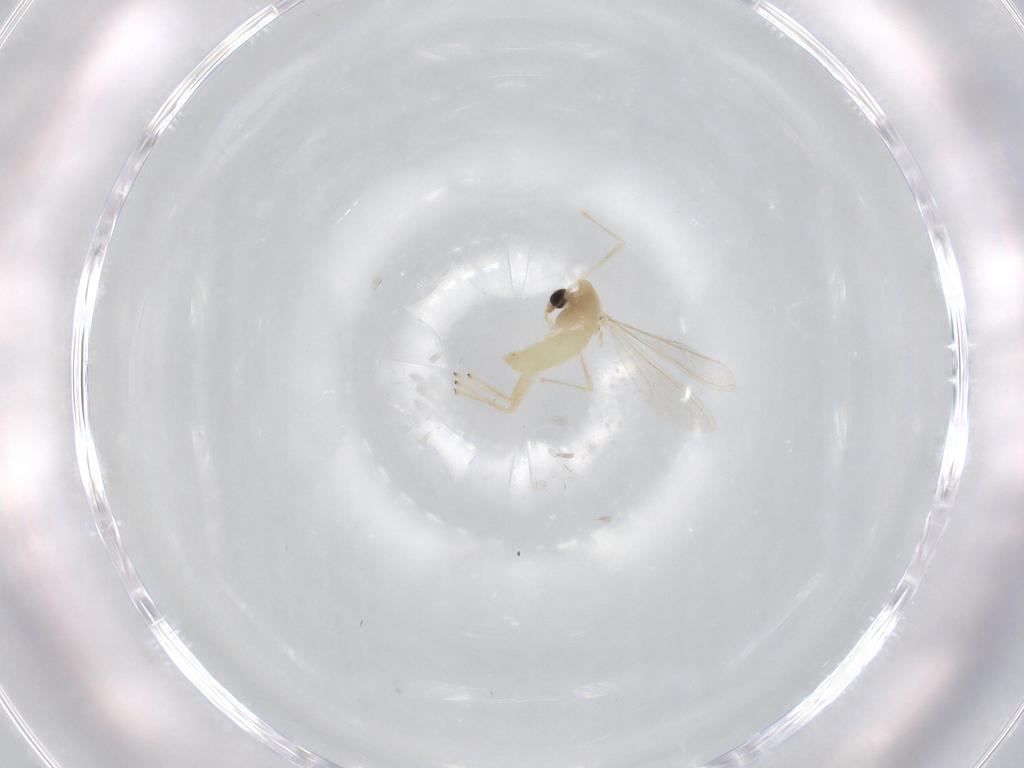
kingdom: Animalia
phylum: Arthropoda
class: Insecta
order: Diptera
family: Chironomidae
